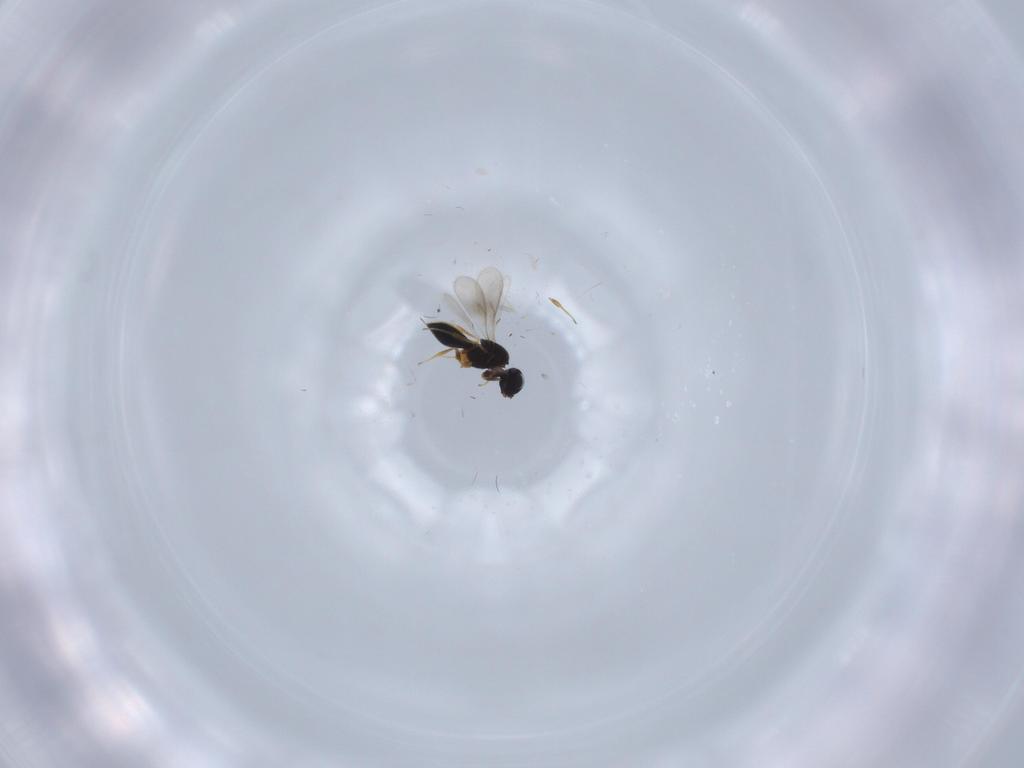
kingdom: Animalia
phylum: Arthropoda
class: Insecta
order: Hymenoptera
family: Scelionidae
